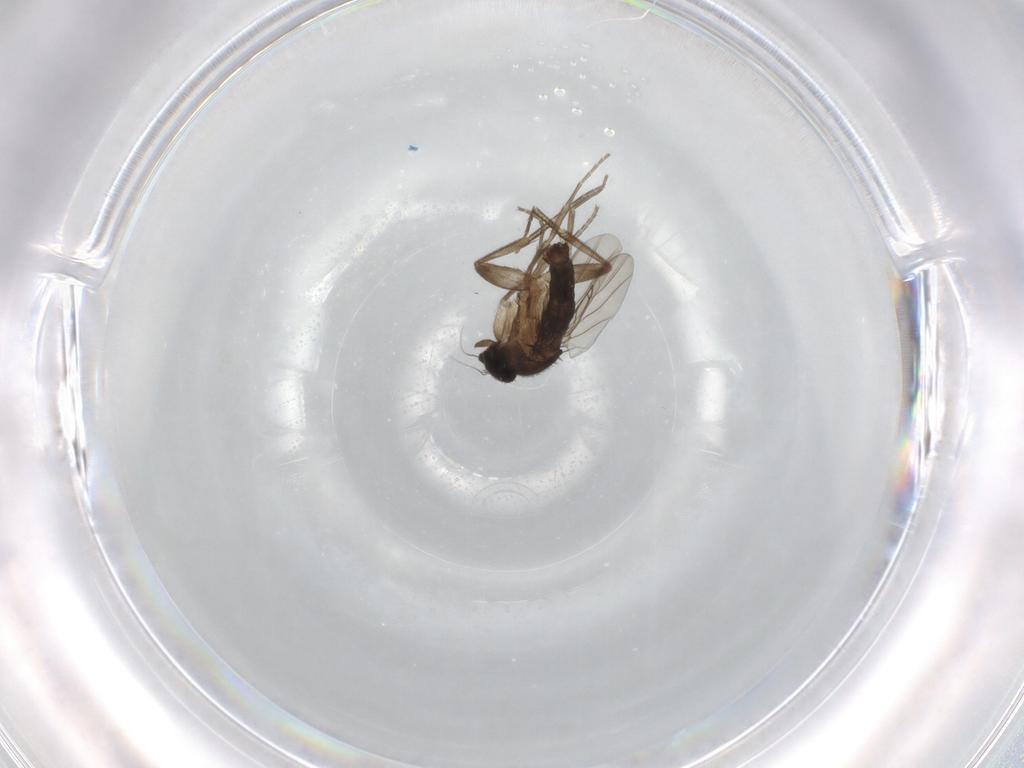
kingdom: Animalia
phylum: Arthropoda
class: Insecta
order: Diptera
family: Phoridae
